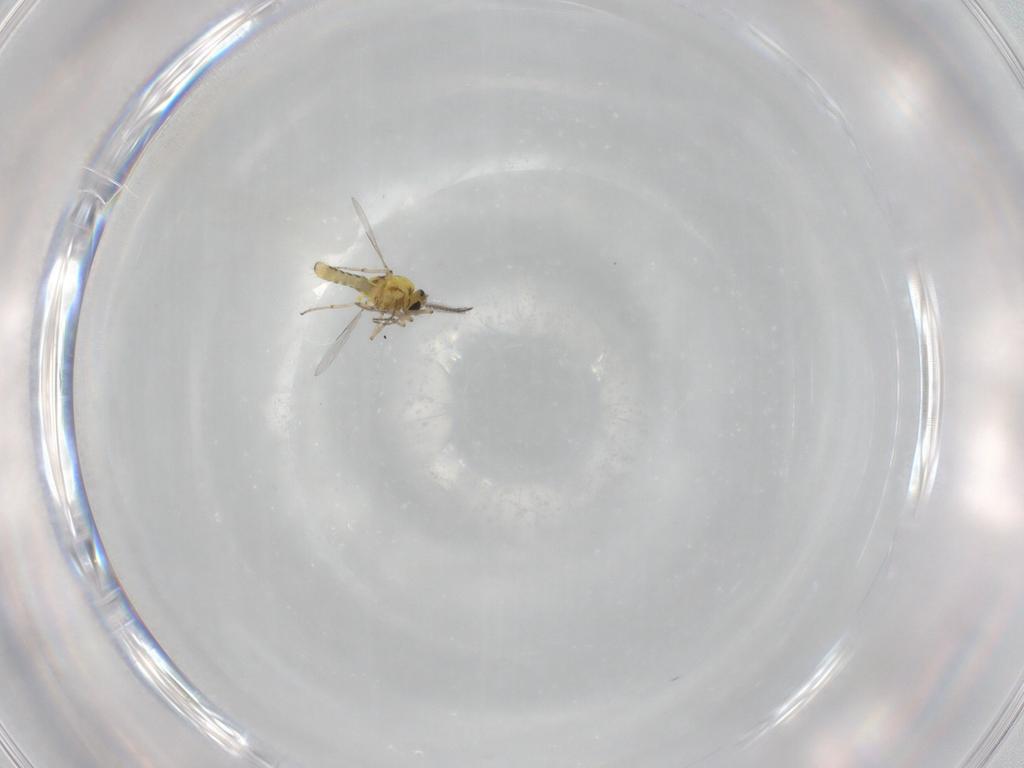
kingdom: Animalia
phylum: Arthropoda
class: Insecta
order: Diptera
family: Ceratopogonidae
